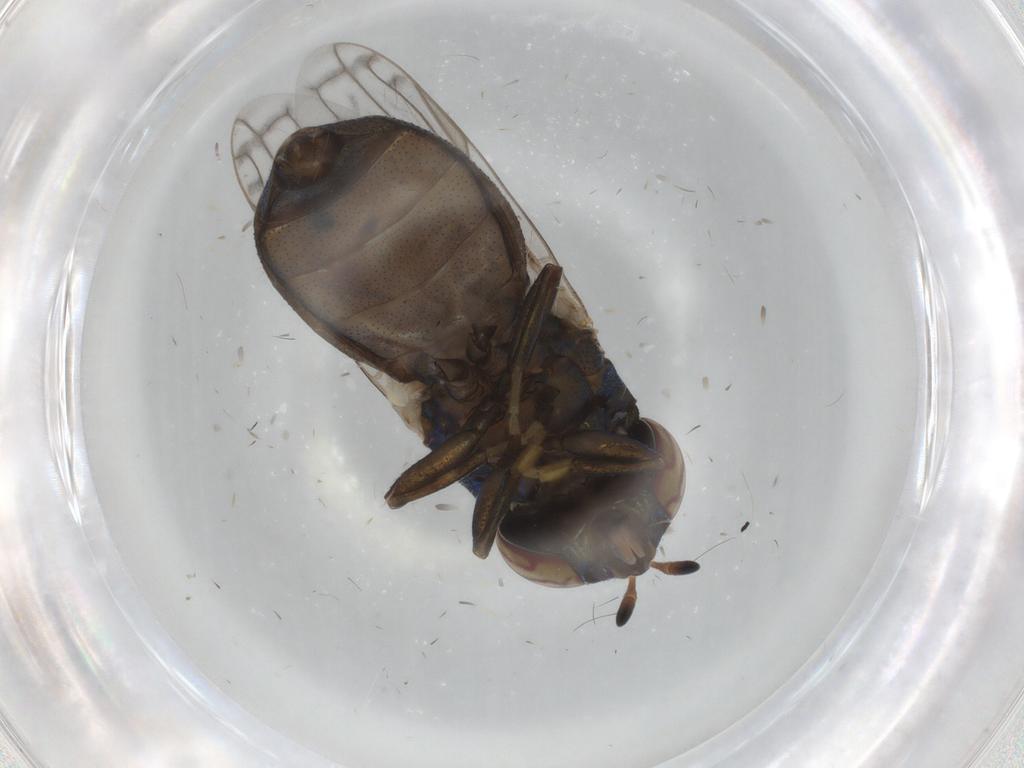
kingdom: Animalia
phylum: Arthropoda
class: Insecta
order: Diptera
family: Syrphidae
